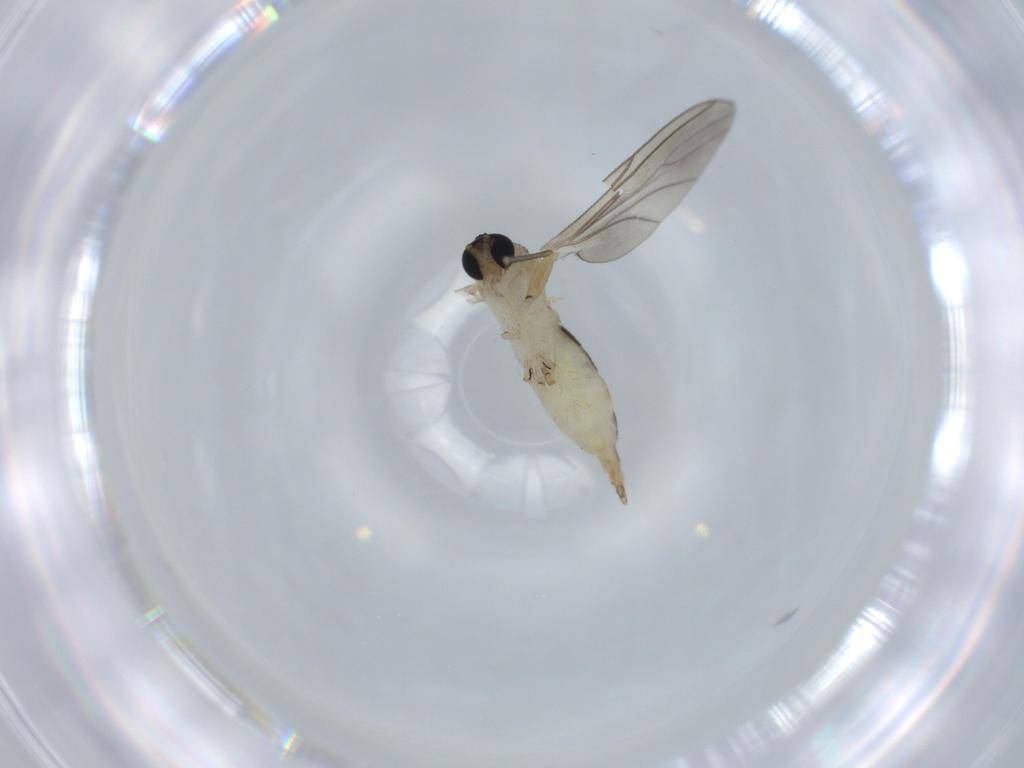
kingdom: Animalia
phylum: Arthropoda
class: Insecta
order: Diptera
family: Sciaridae
